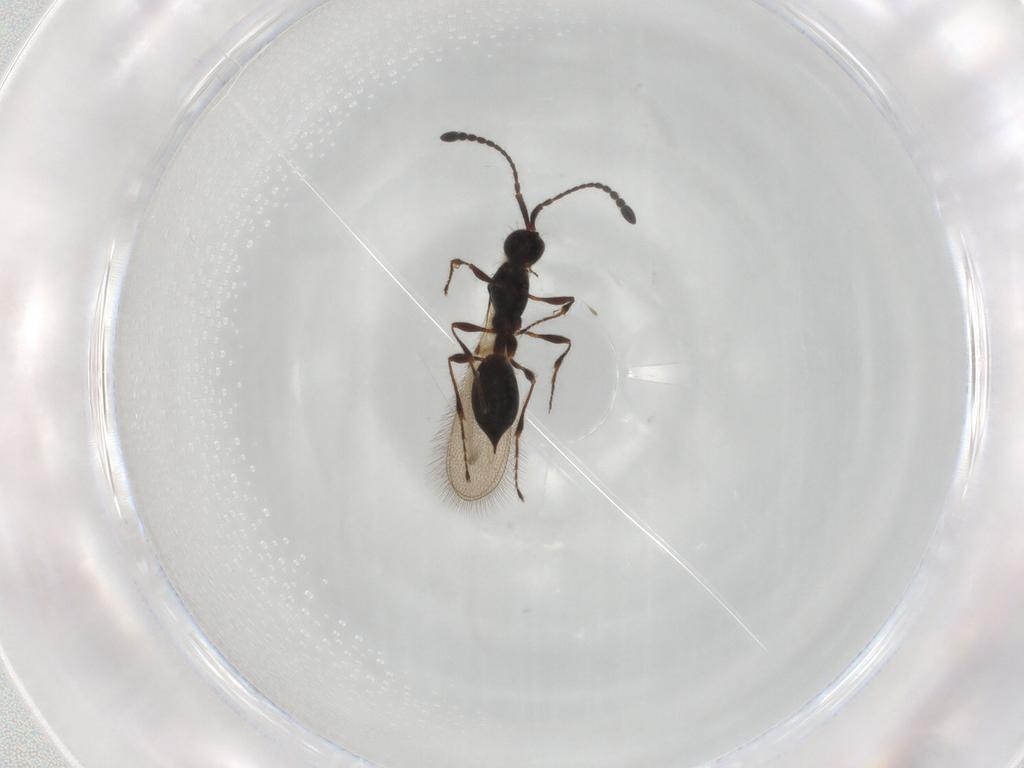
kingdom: Animalia
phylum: Arthropoda
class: Insecta
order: Hymenoptera
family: Diapriidae
